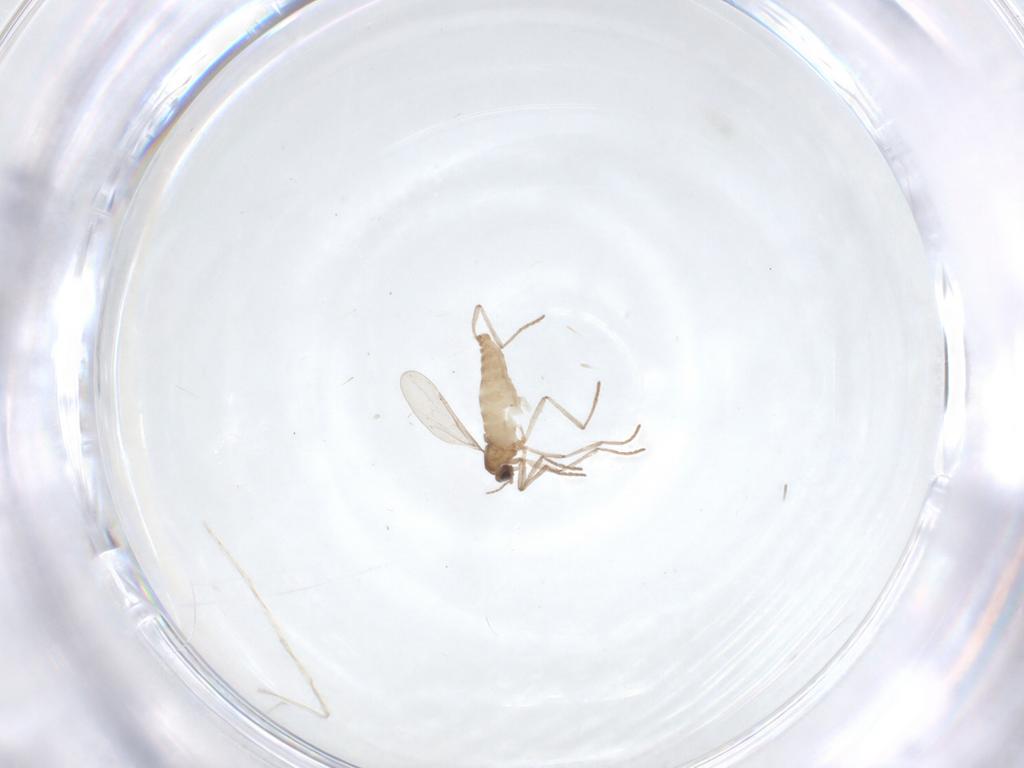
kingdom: Animalia
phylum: Arthropoda
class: Insecta
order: Diptera
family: Cecidomyiidae
